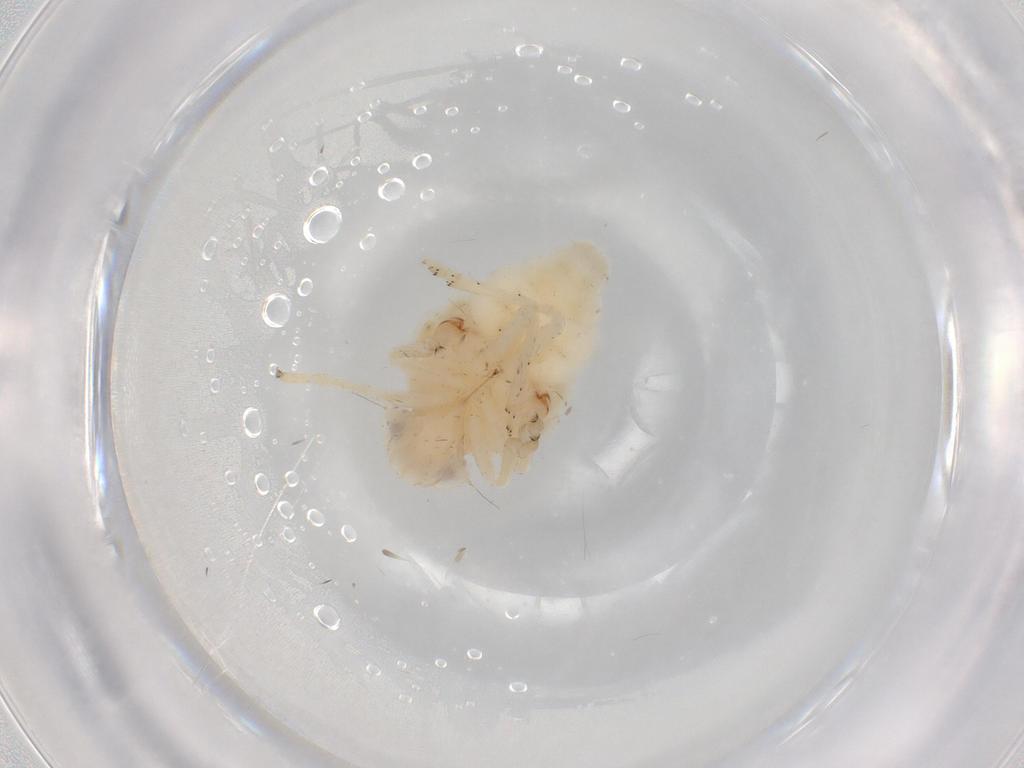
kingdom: Animalia
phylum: Arthropoda
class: Insecta
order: Hemiptera
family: Nogodinidae
